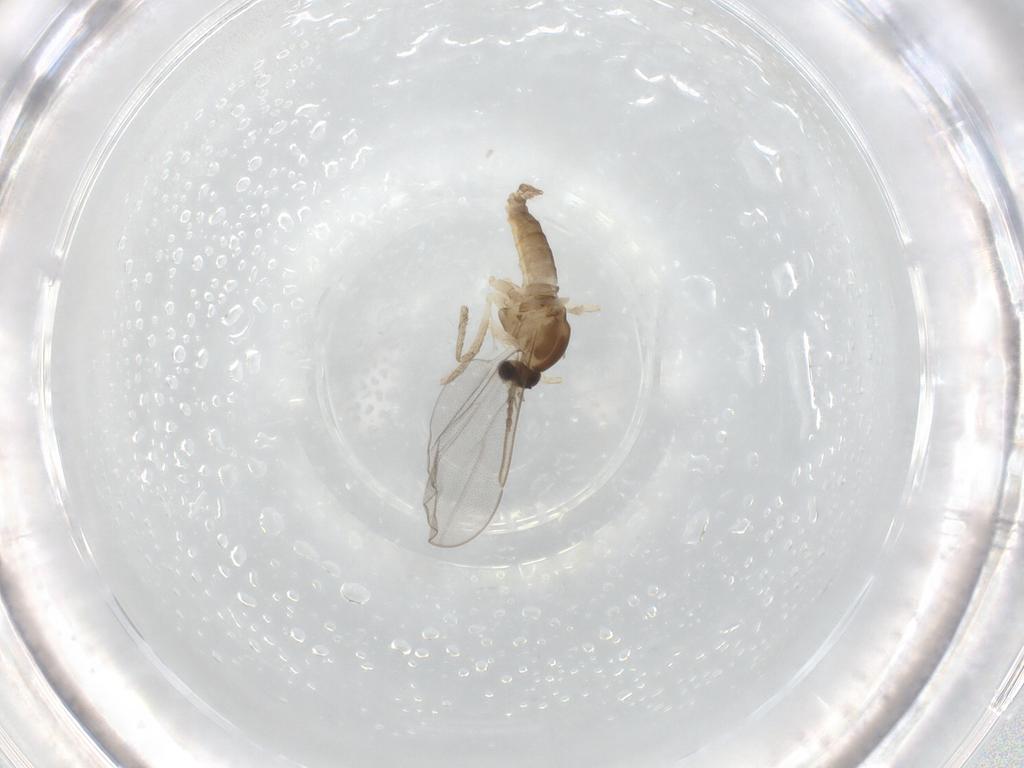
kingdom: Animalia
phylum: Arthropoda
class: Insecta
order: Diptera
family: Cecidomyiidae
